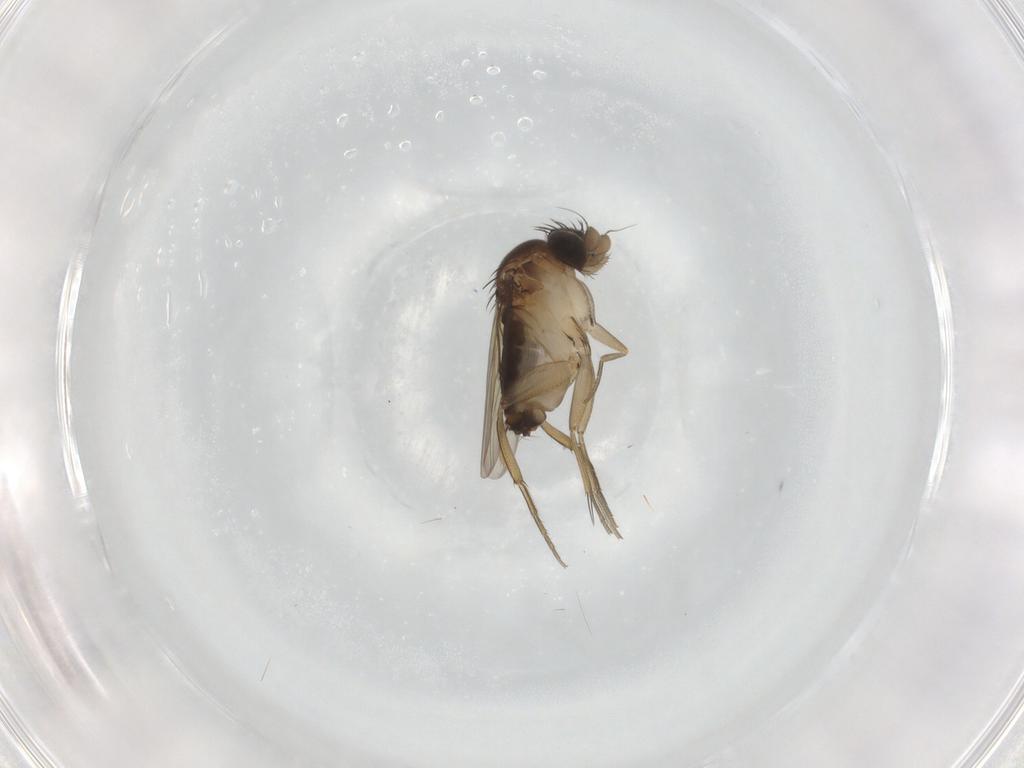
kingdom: Animalia
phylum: Arthropoda
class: Insecta
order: Diptera
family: Phoridae
